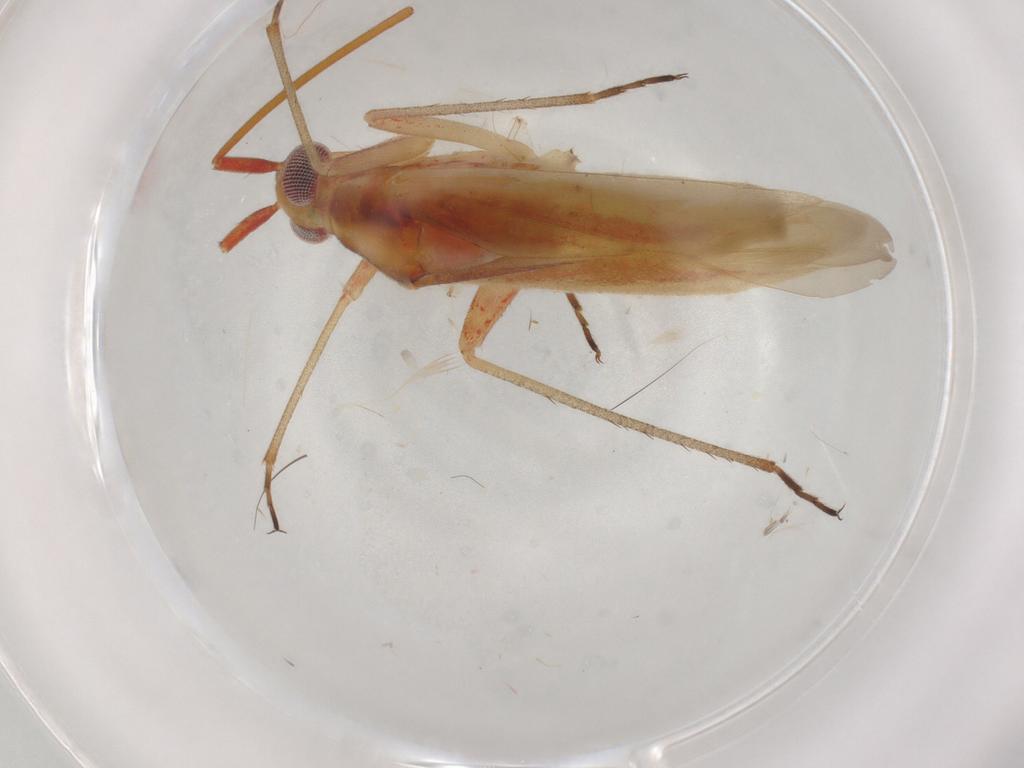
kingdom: Animalia
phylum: Arthropoda
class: Insecta
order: Hemiptera
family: Miridae
